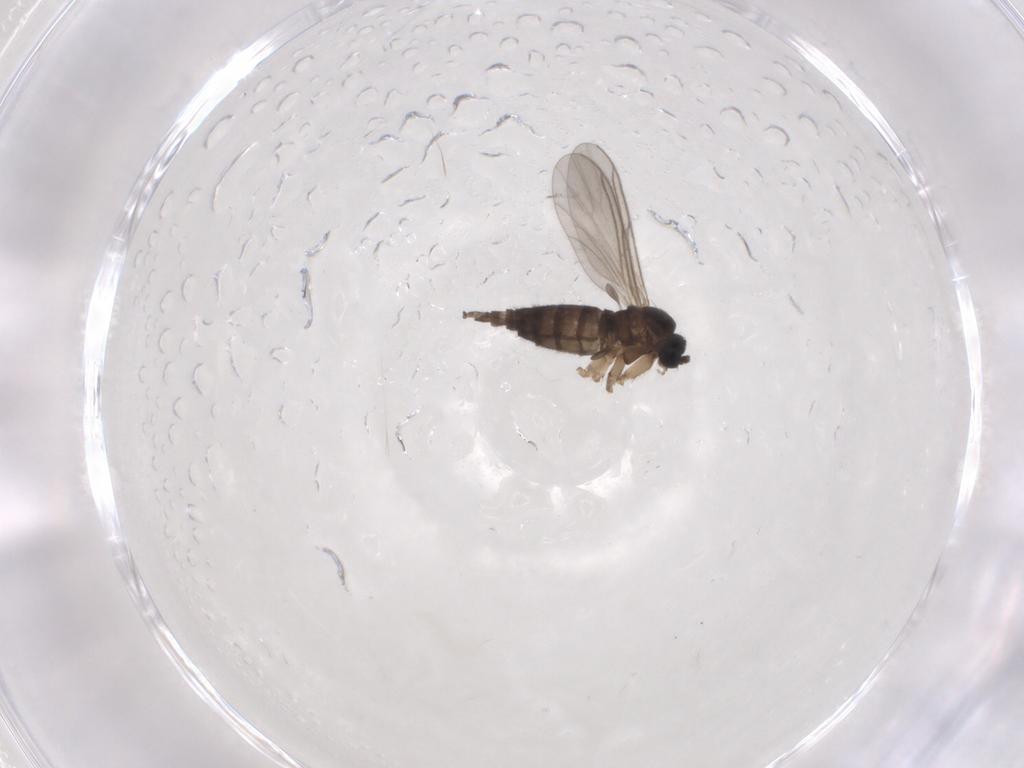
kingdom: Animalia
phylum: Arthropoda
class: Insecta
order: Diptera
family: Sciaridae
